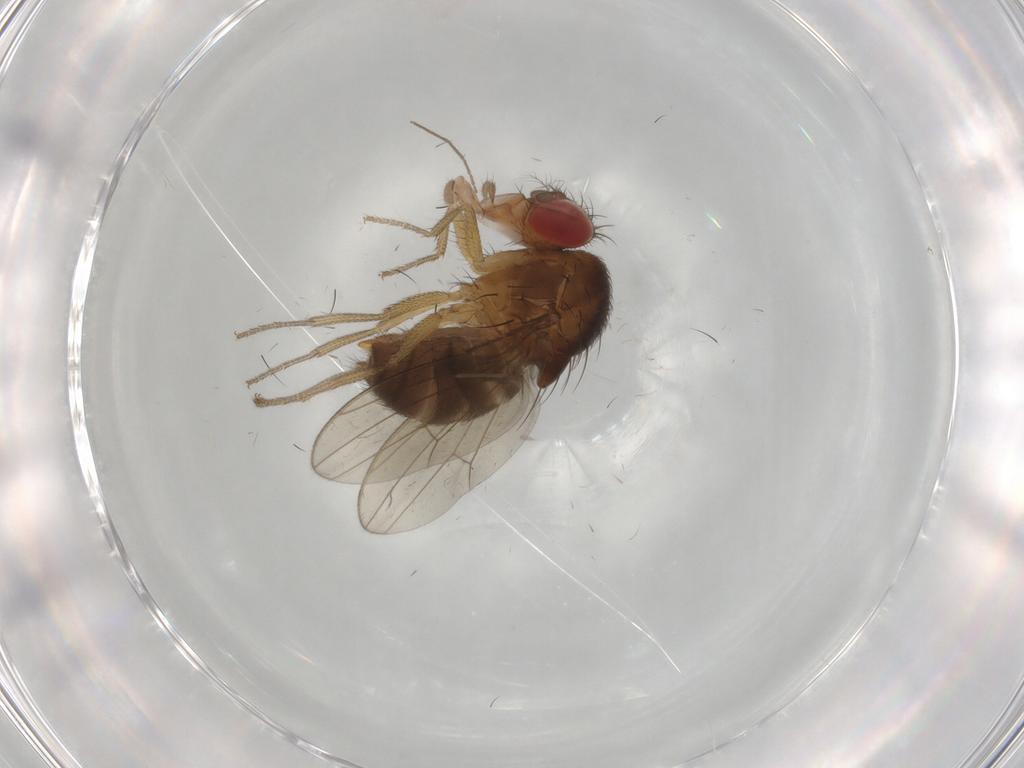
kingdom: Animalia
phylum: Arthropoda
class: Insecta
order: Diptera
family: Drosophilidae
